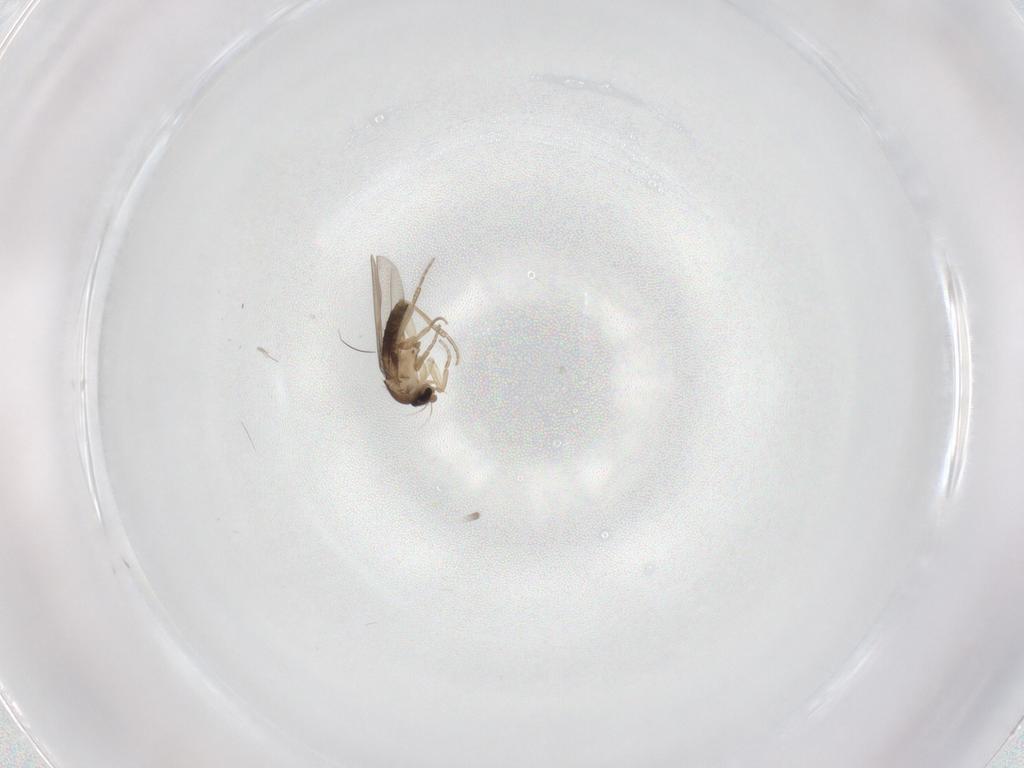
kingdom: Animalia
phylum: Arthropoda
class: Insecta
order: Diptera
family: Phoridae
